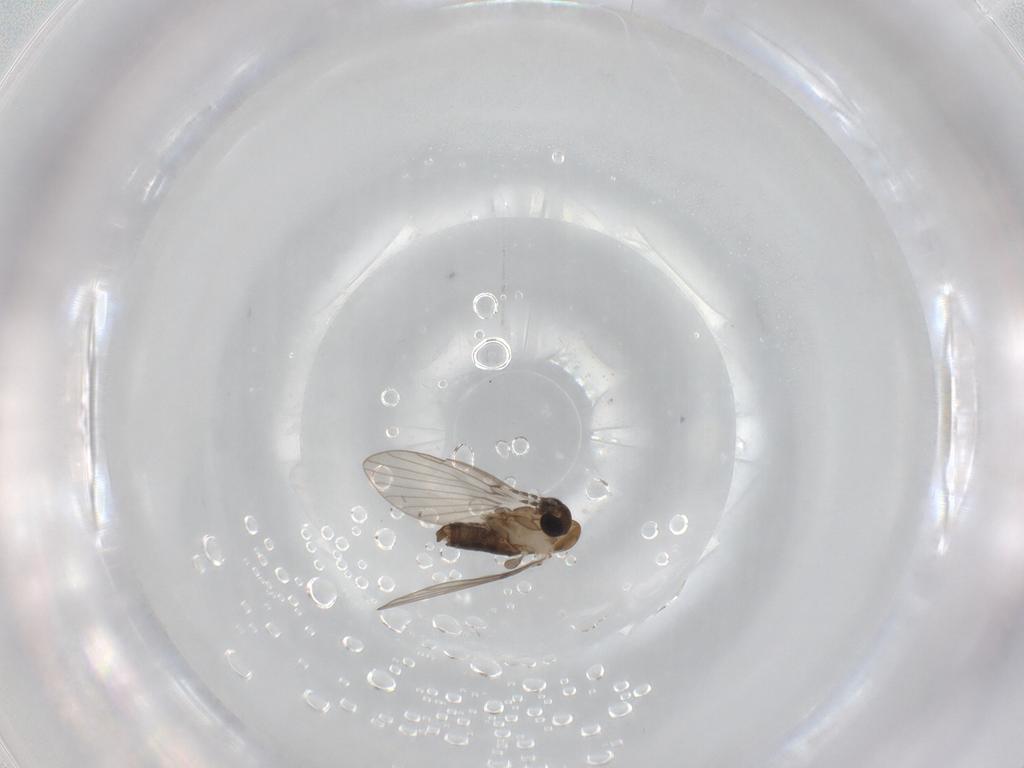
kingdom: Animalia
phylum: Arthropoda
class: Insecta
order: Diptera
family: Psychodidae
